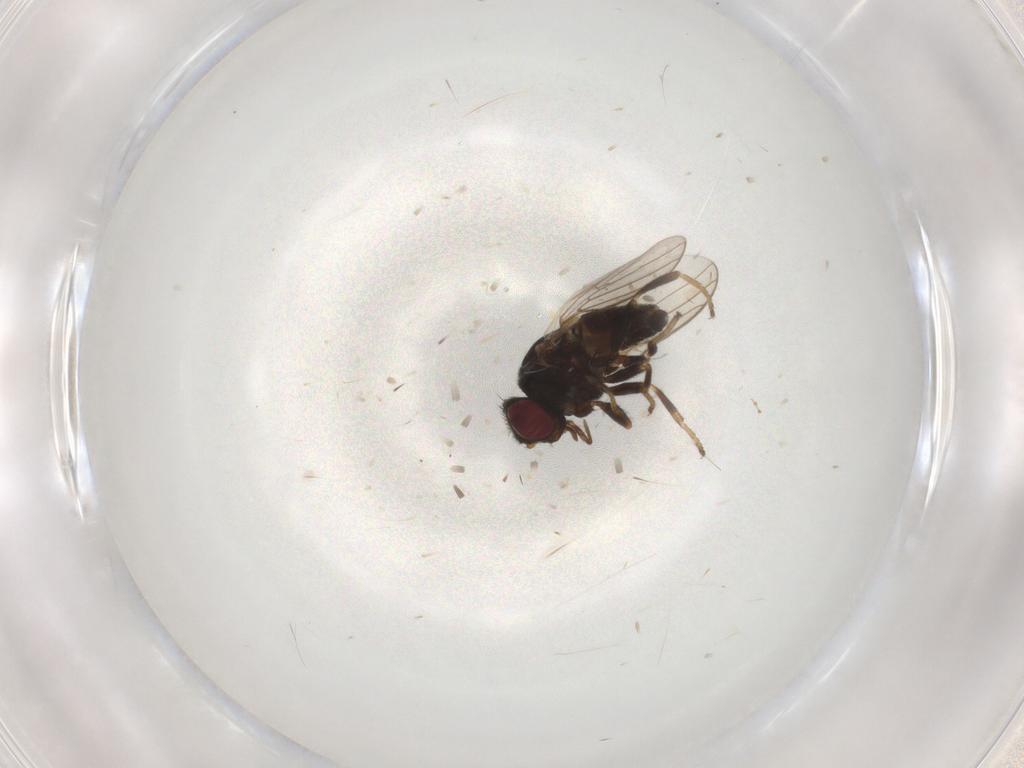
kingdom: Animalia
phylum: Arthropoda
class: Insecta
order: Diptera
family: Chloropidae
